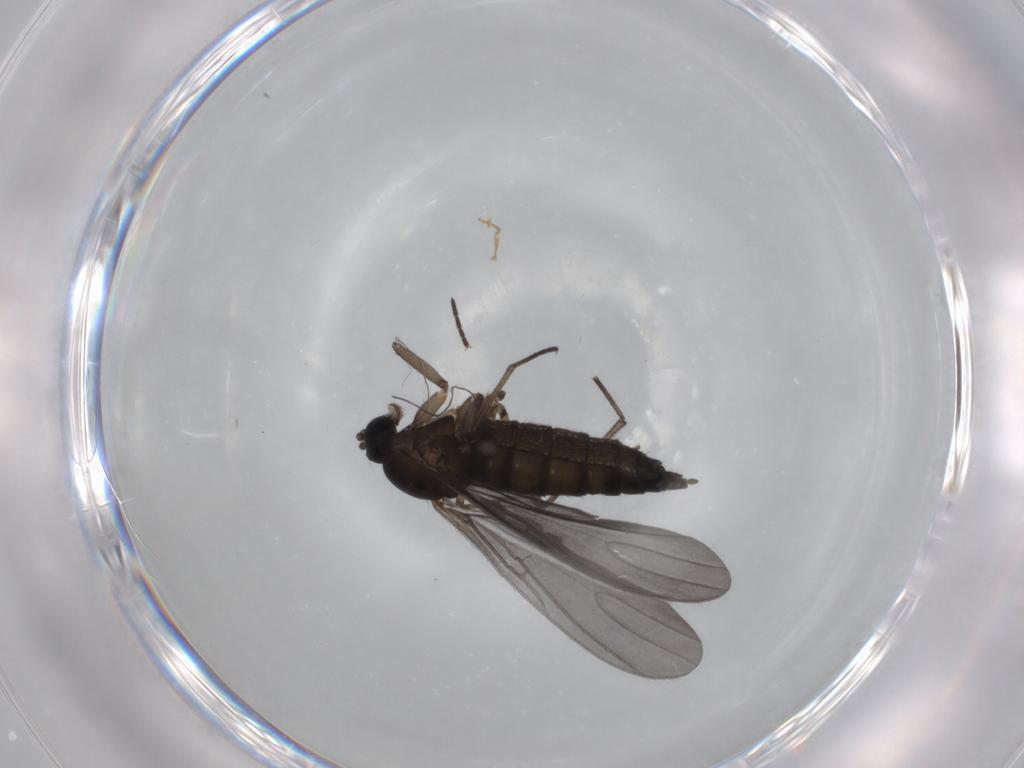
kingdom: Animalia
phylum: Arthropoda
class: Insecta
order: Diptera
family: Sciaridae
